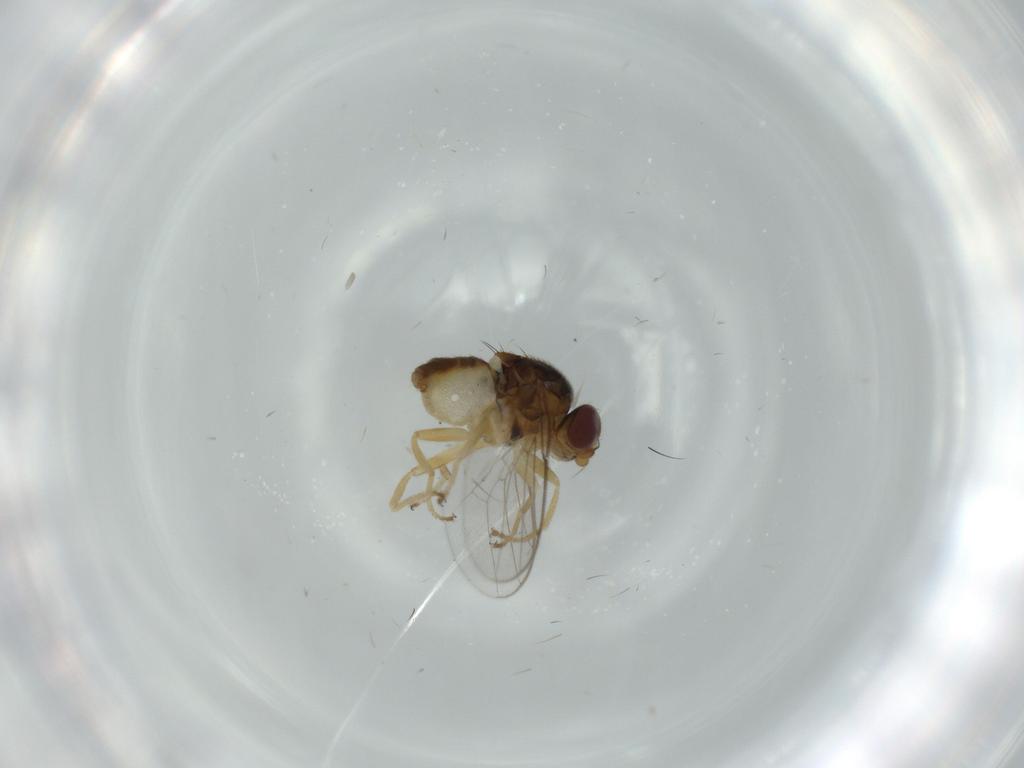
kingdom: Animalia
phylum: Arthropoda
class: Insecta
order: Diptera
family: Chloropidae
